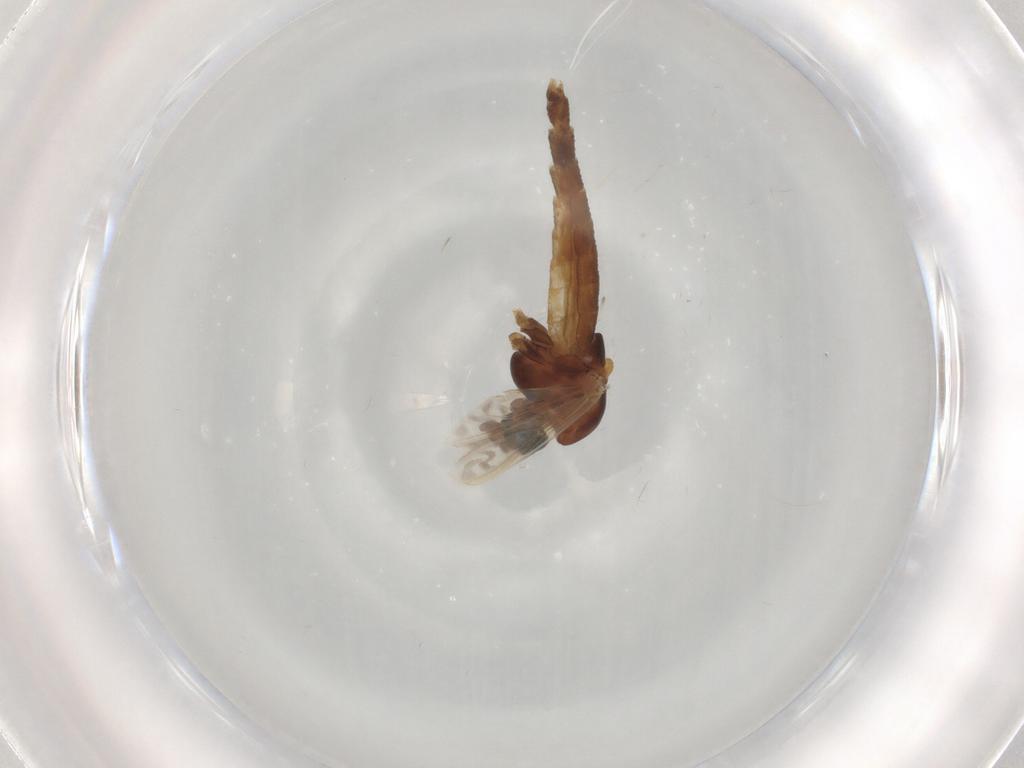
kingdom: Animalia
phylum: Arthropoda
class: Insecta
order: Diptera
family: Chironomidae
